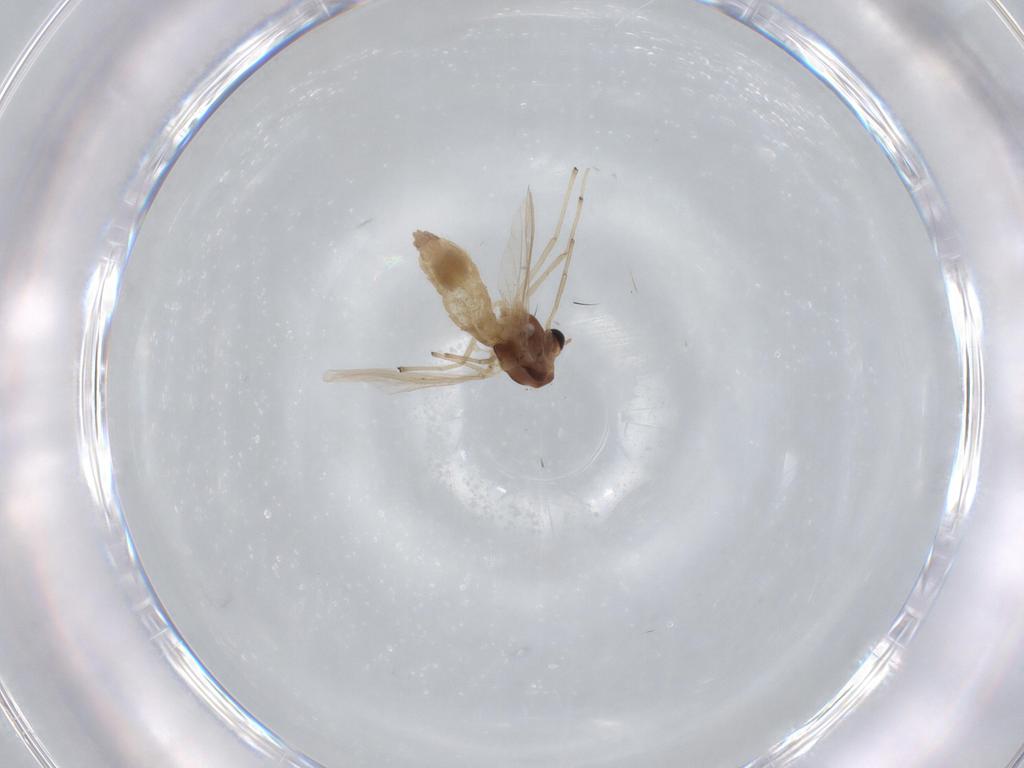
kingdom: Animalia
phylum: Arthropoda
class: Insecta
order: Diptera
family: Chironomidae
